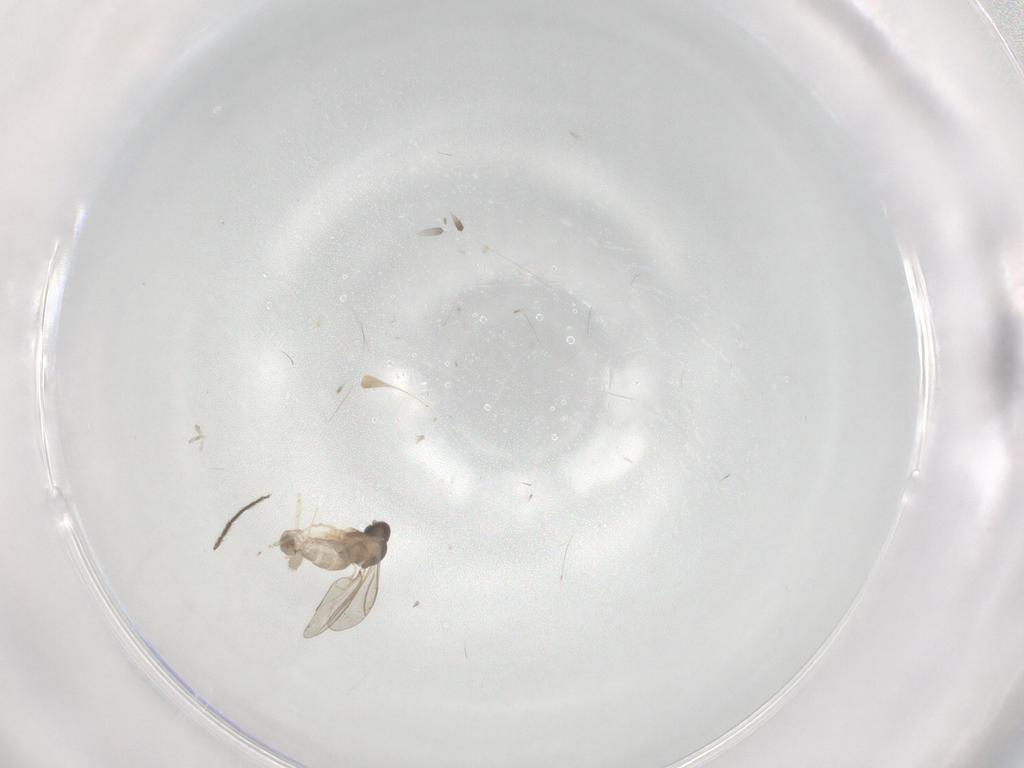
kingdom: Animalia
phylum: Arthropoda
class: Insecta
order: Diptera
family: Cecidomyiidae
